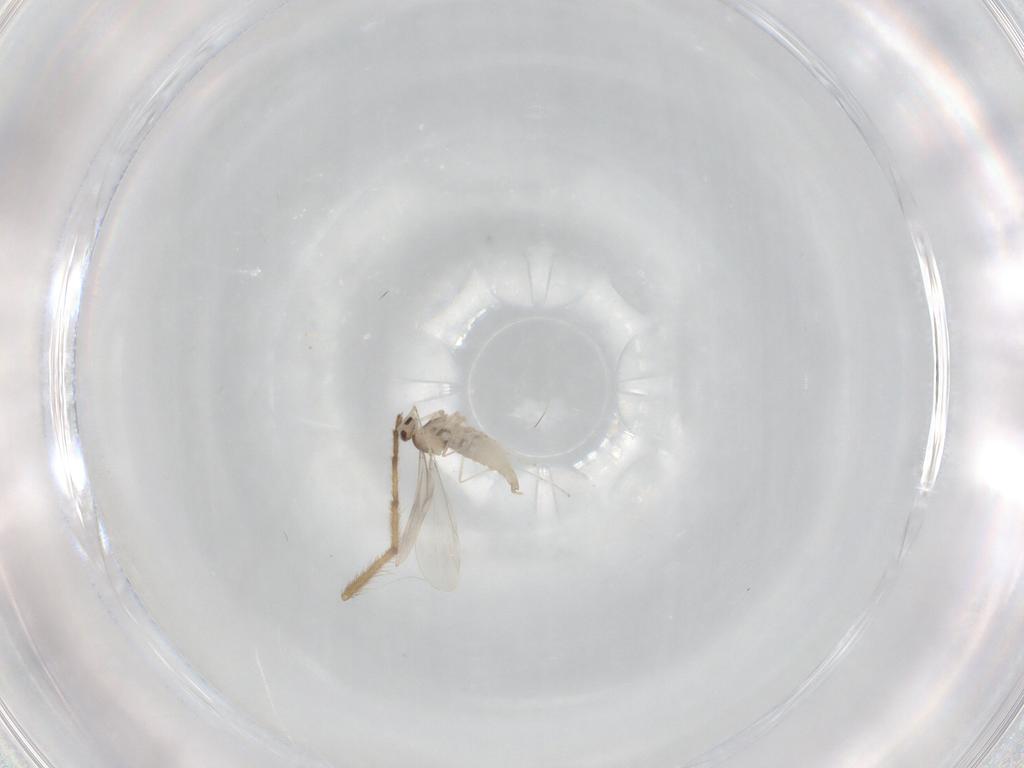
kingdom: Animalia
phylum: Arthropoda
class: Insecta
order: Diptera
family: Chironomidae
